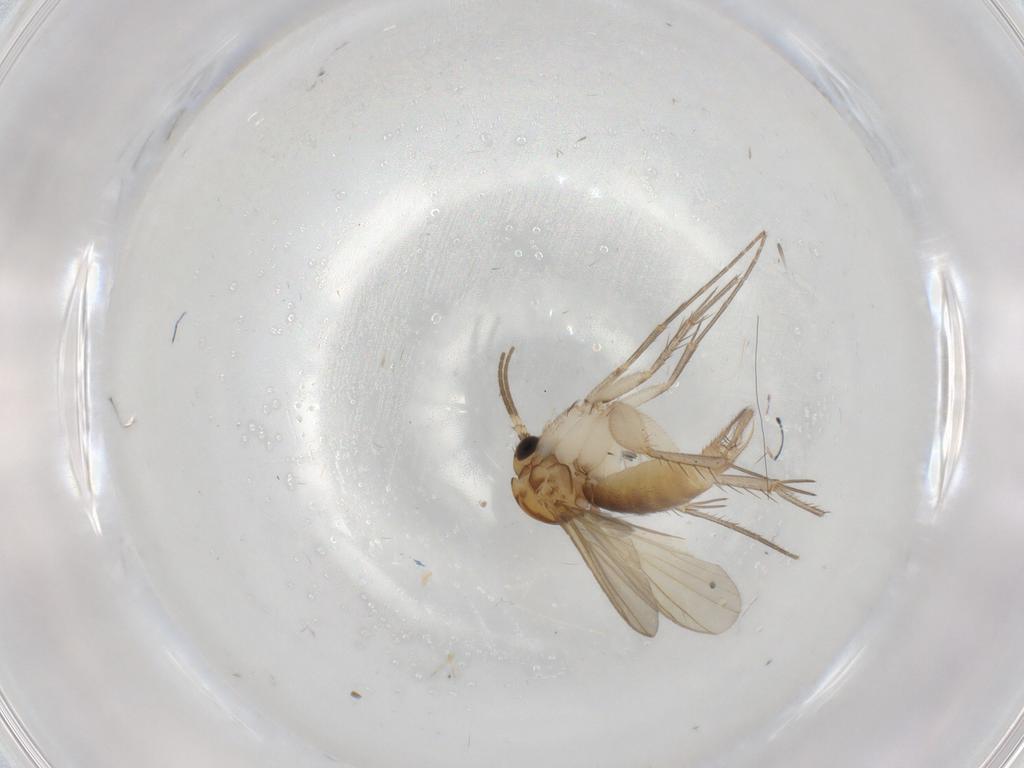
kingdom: Animalia
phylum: Arthropoda
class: Insecta
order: Diptera
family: Mycetophilidae
